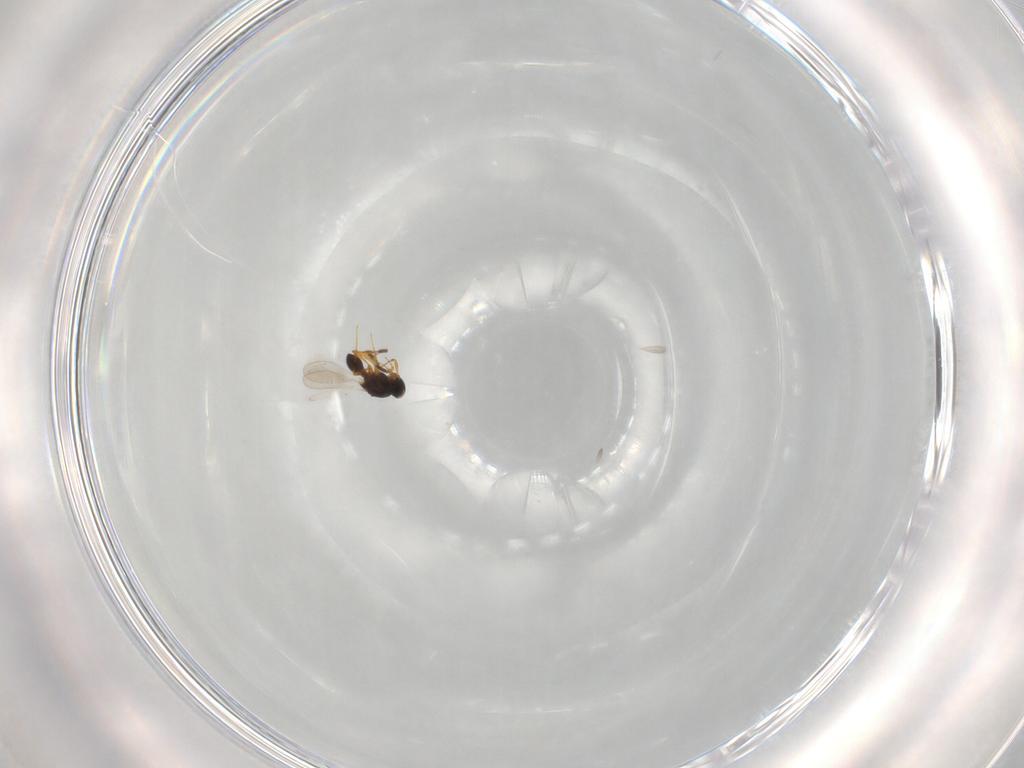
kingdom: Animalia
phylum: Arthropoda
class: Insecta
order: Hymenoptera
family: Platygastridae
